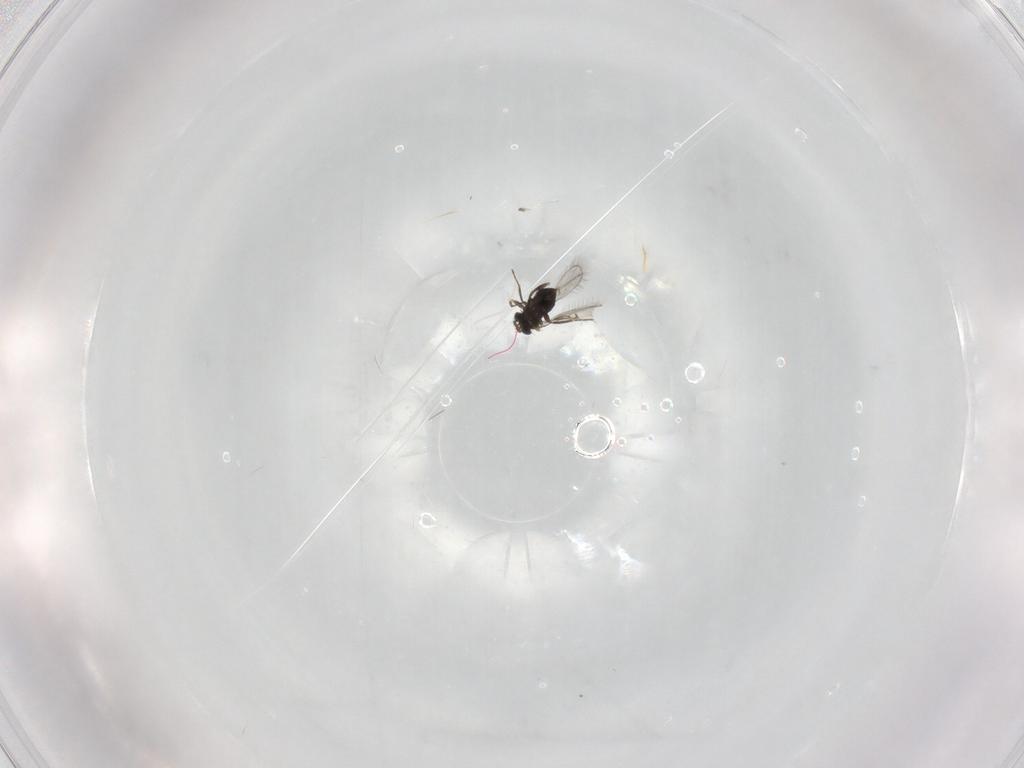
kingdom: Animalia
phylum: Arthropoda
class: Insecta
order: Hymenoptera
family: Trichogrammatidae
